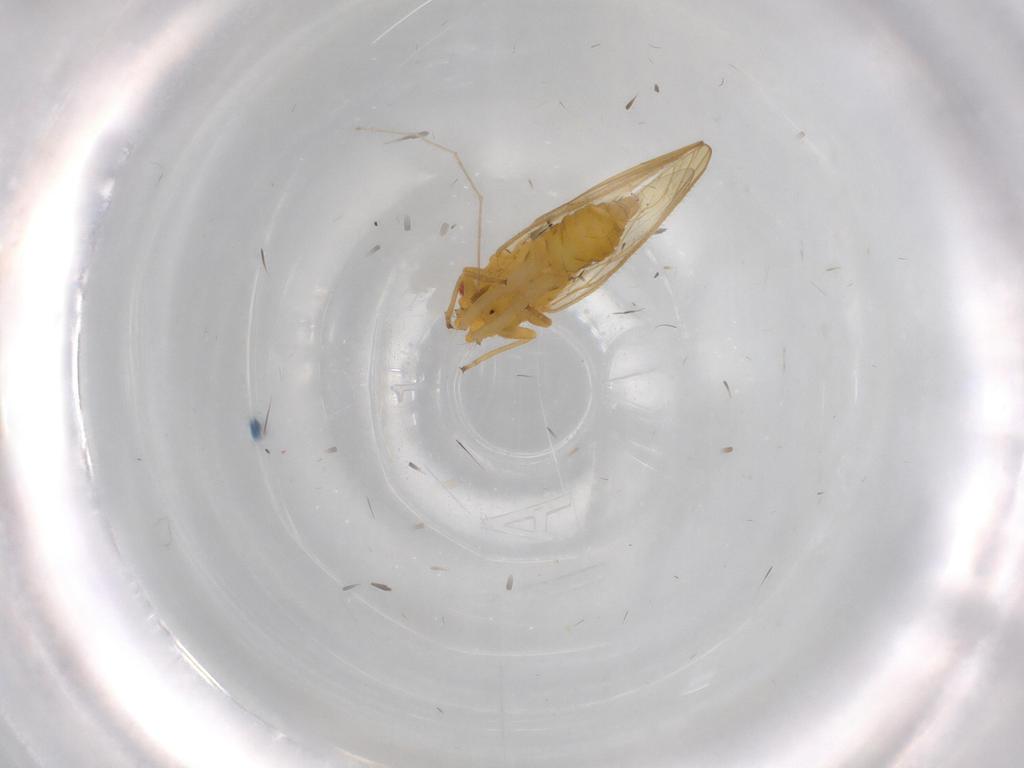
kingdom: Animalia
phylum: Arthropoda
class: Insecta
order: Hemiptera
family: Psyllidae
